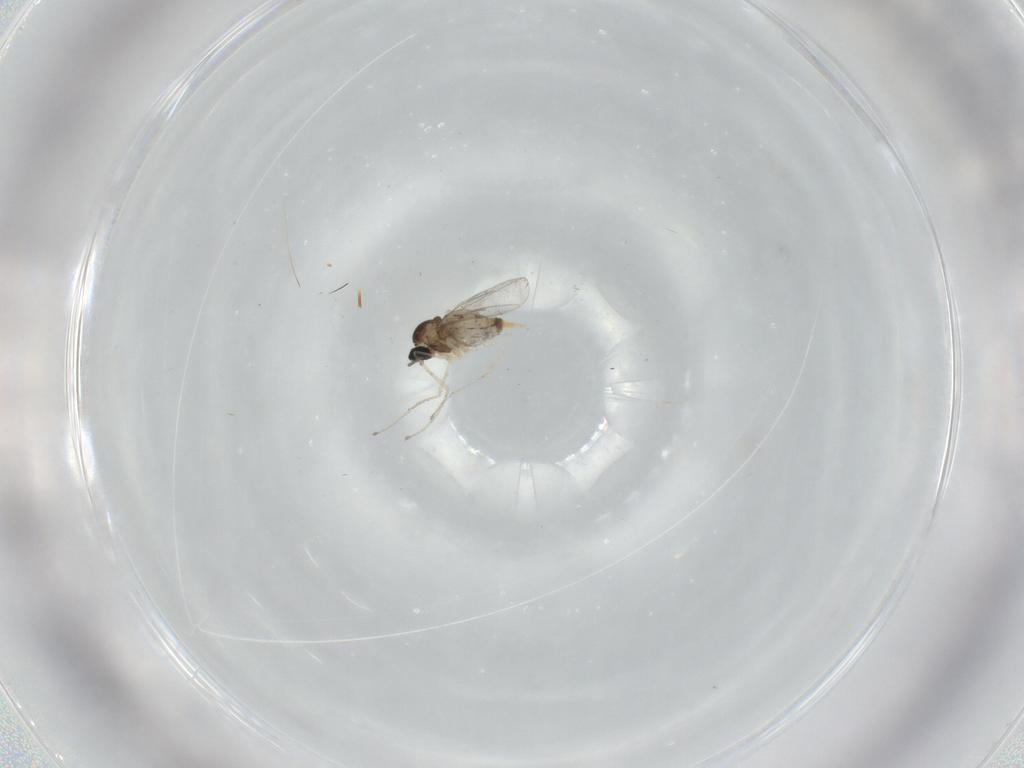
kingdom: Animalia
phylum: Arthropoda
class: Insecta
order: Diptera
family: Cecidomyiidae
